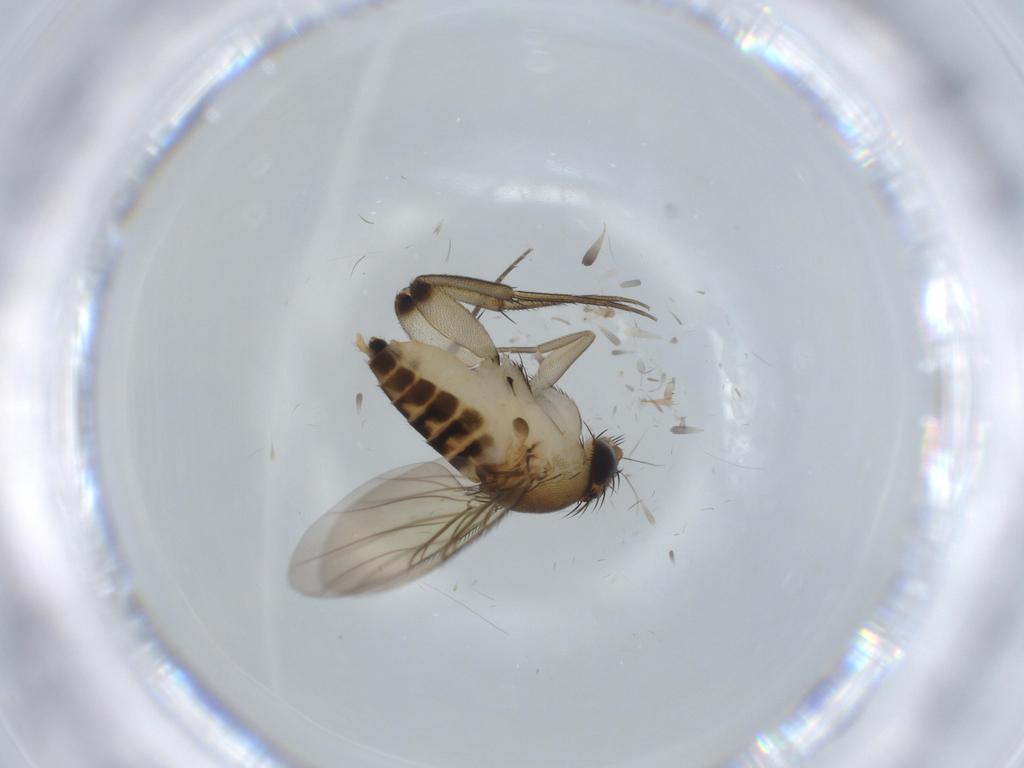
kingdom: Animalia
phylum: Arthropoda
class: Insecta
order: Diptera
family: Phoridae
